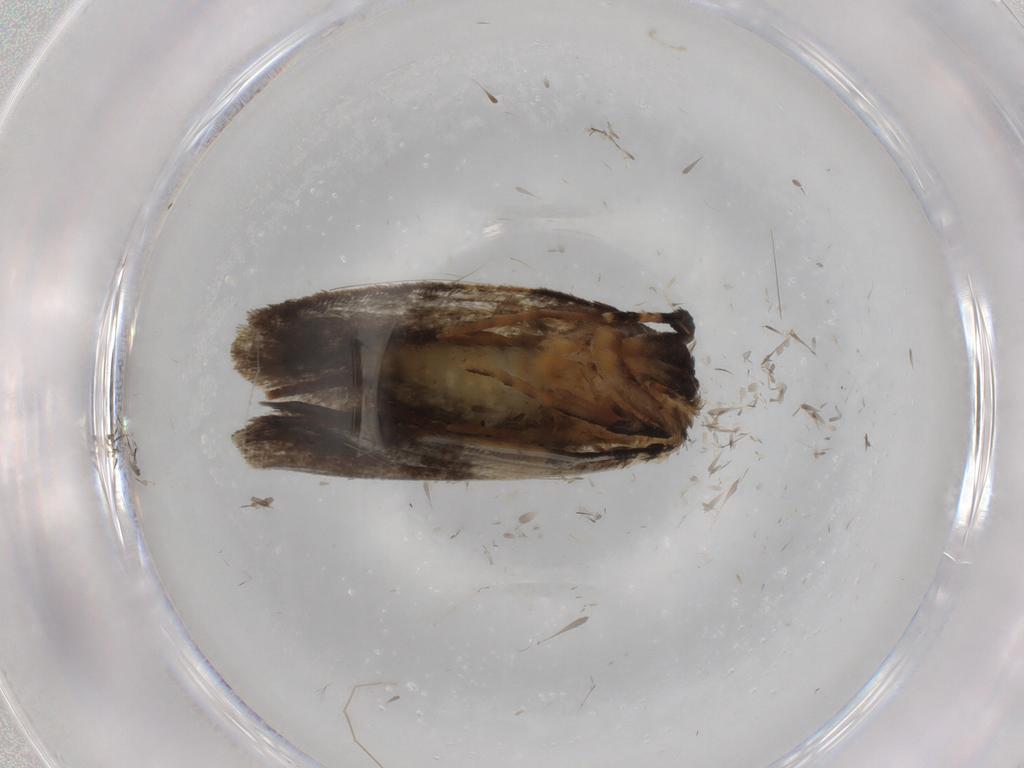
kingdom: Animalia
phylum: Arthropoda
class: Insecta
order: Lepidoptera
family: Psychidae
